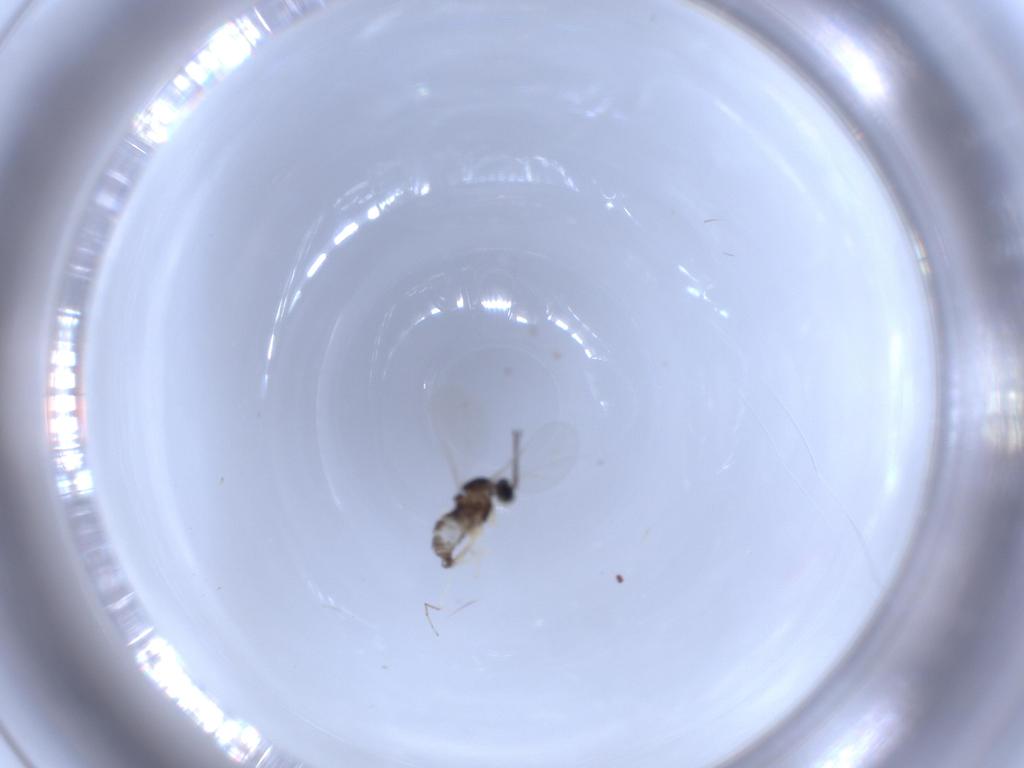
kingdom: Animalia
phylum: Arthropoda
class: Insecta
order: Diptera
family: Cecidomyiidae
